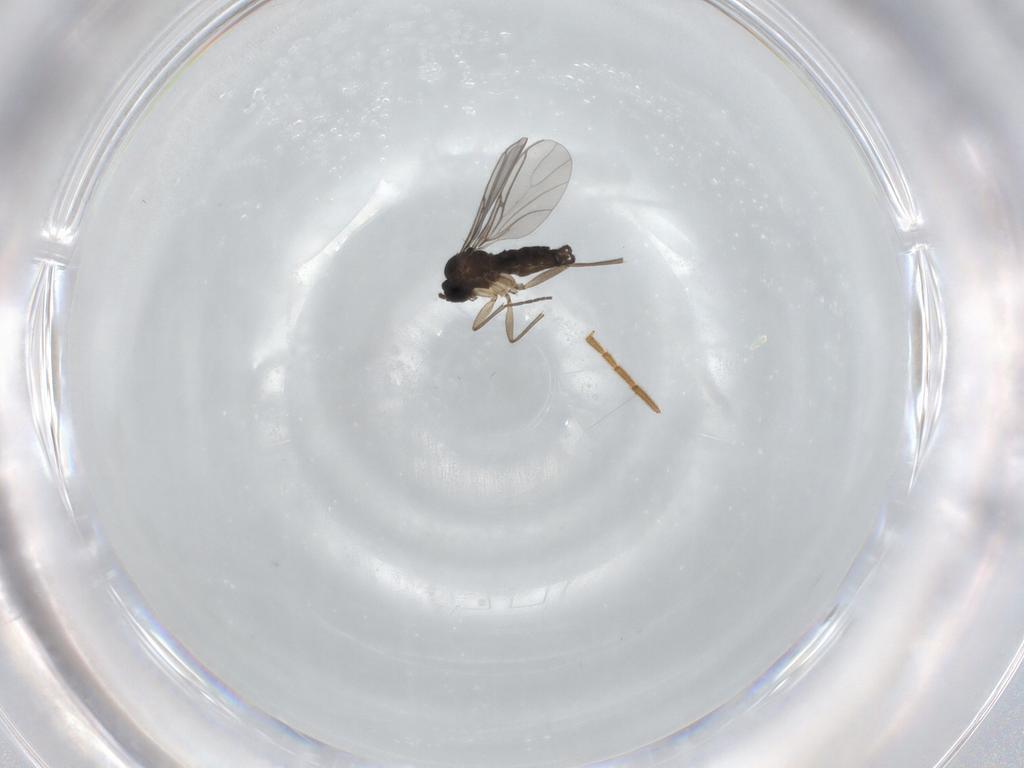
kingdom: Animalia
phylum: Arthropoda
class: Insecta
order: Diptera
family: Sciaridae
